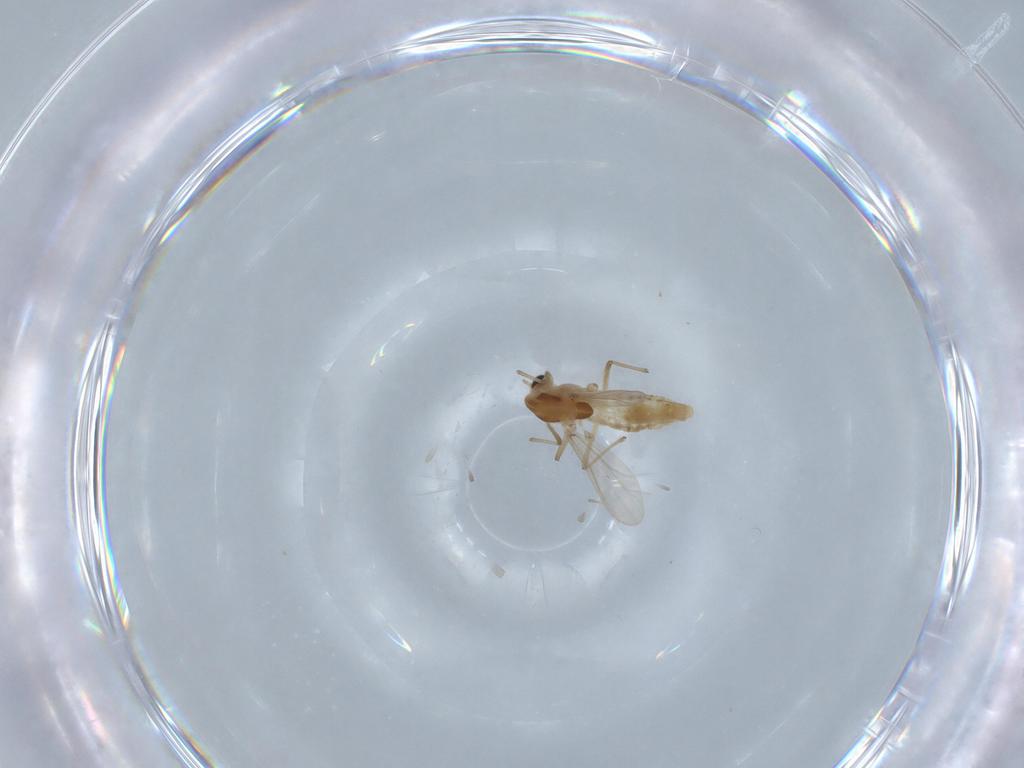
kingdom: Animalia
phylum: Arthropoda
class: Insecta
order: Diptera
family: Chironomidae
